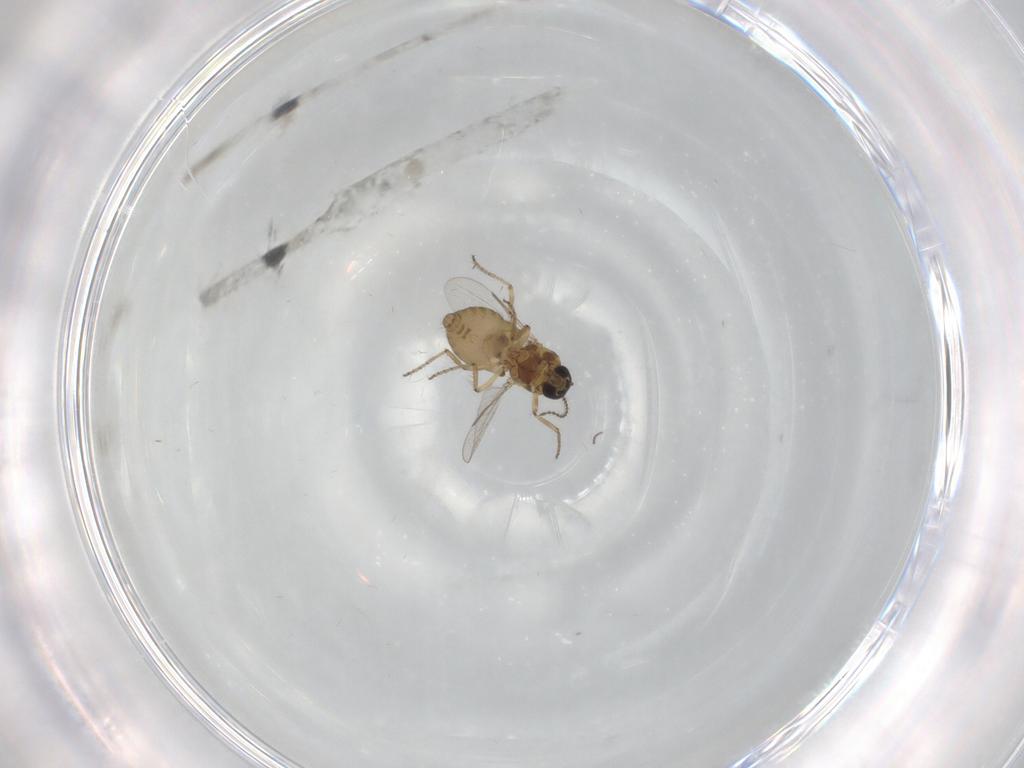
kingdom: Animalia
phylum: Arthropoda
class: Insecta
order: Diptera
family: Ceratopogonidae
